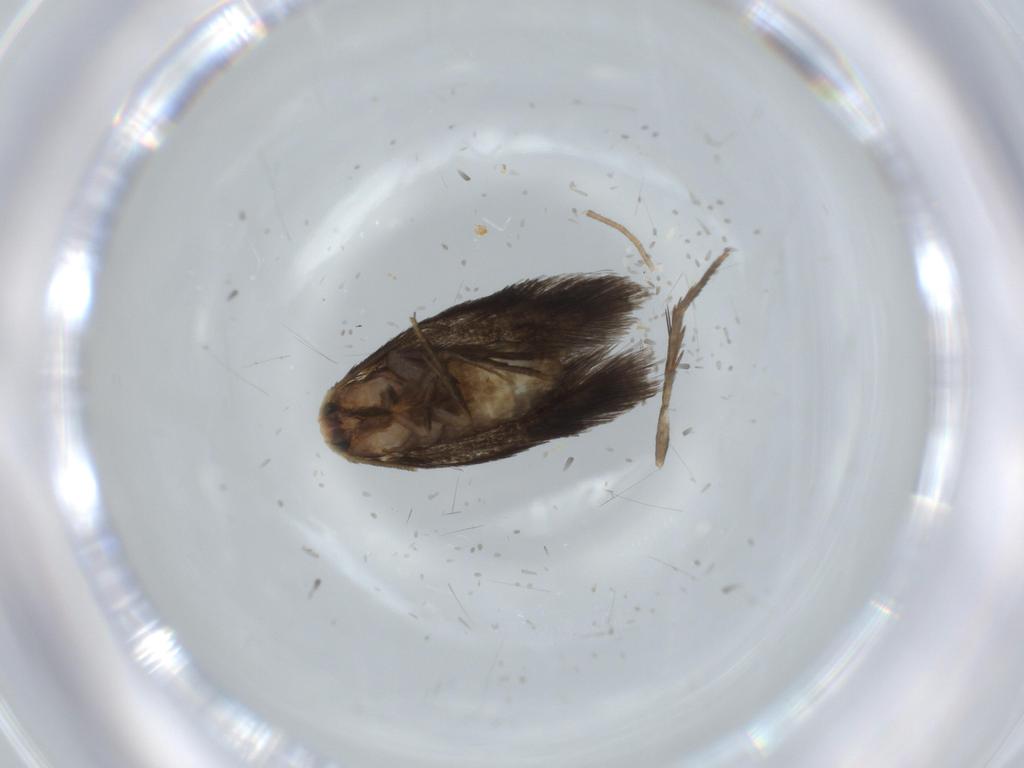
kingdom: Animalia
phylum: Arthropoda
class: Insecta
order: Lepidoptera
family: Nepticulidae
